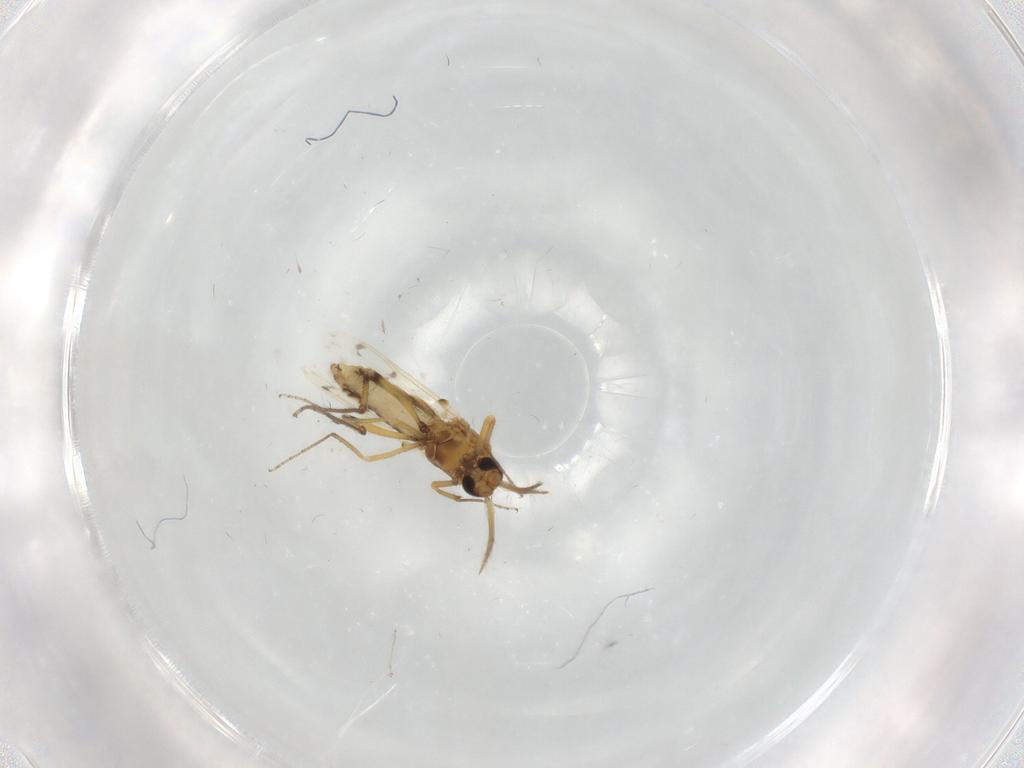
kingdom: Animalia
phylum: Arthropoda
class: Insecta
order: Diptera
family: Ceratopogonidae
